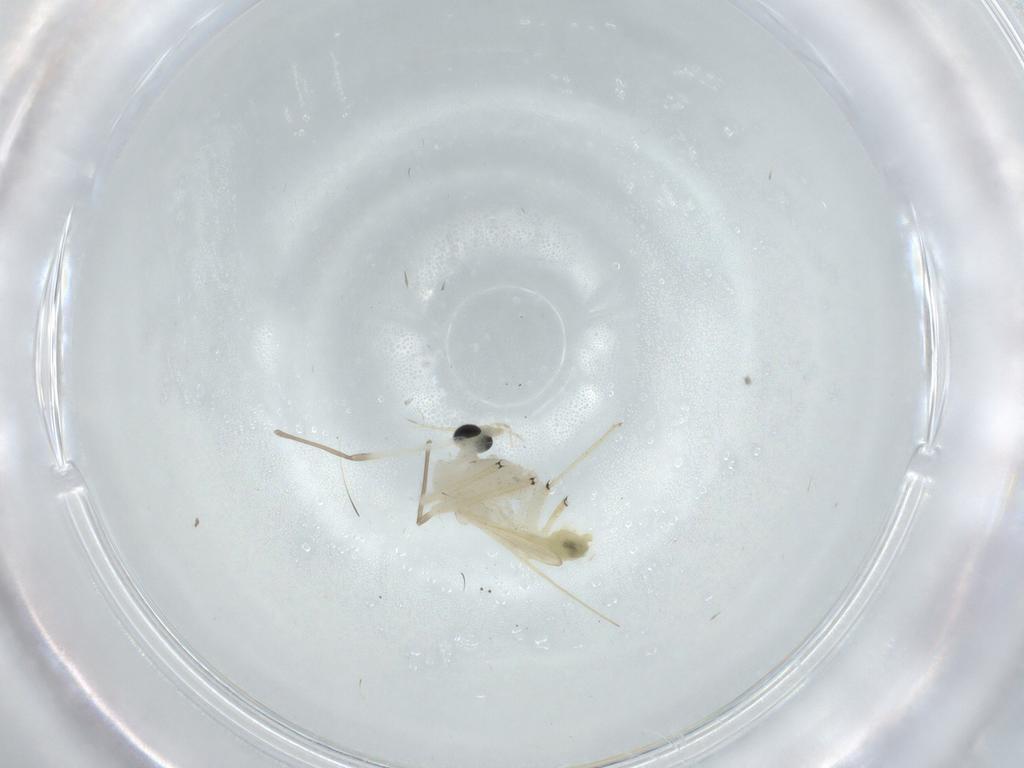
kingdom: Animalia
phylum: Arthropoda
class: Insecta
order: Diptera
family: Chironomidae
